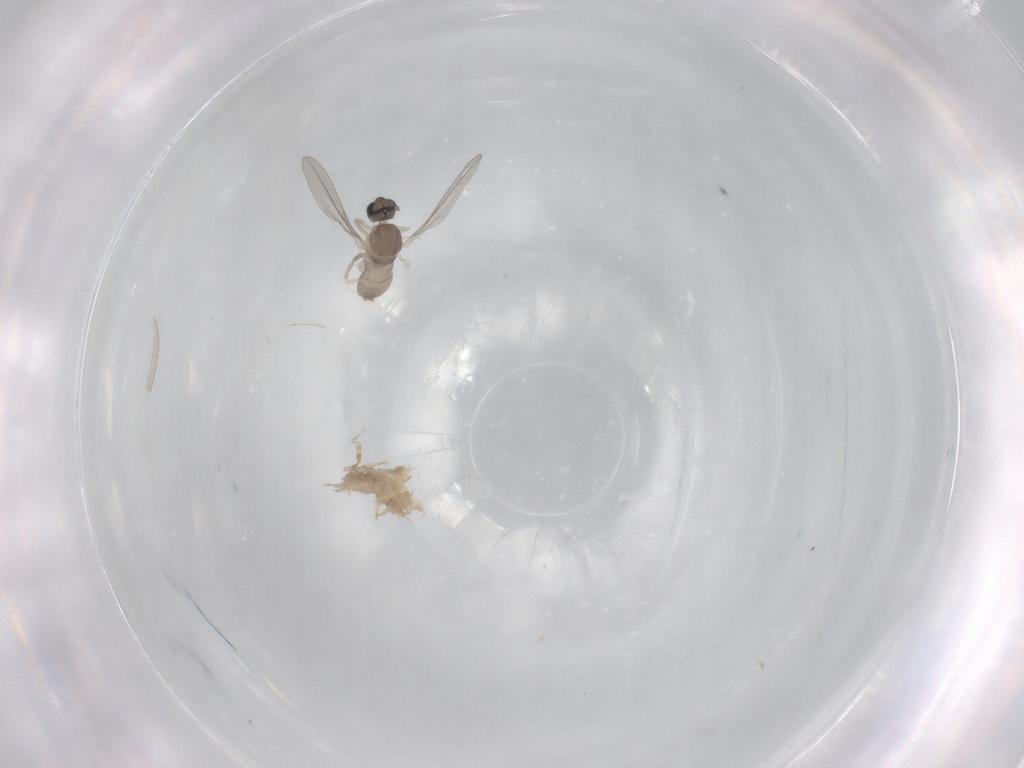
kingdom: Animalia
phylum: Arthropoda
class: Insecta
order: Diptera
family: Cecidomyiidae
